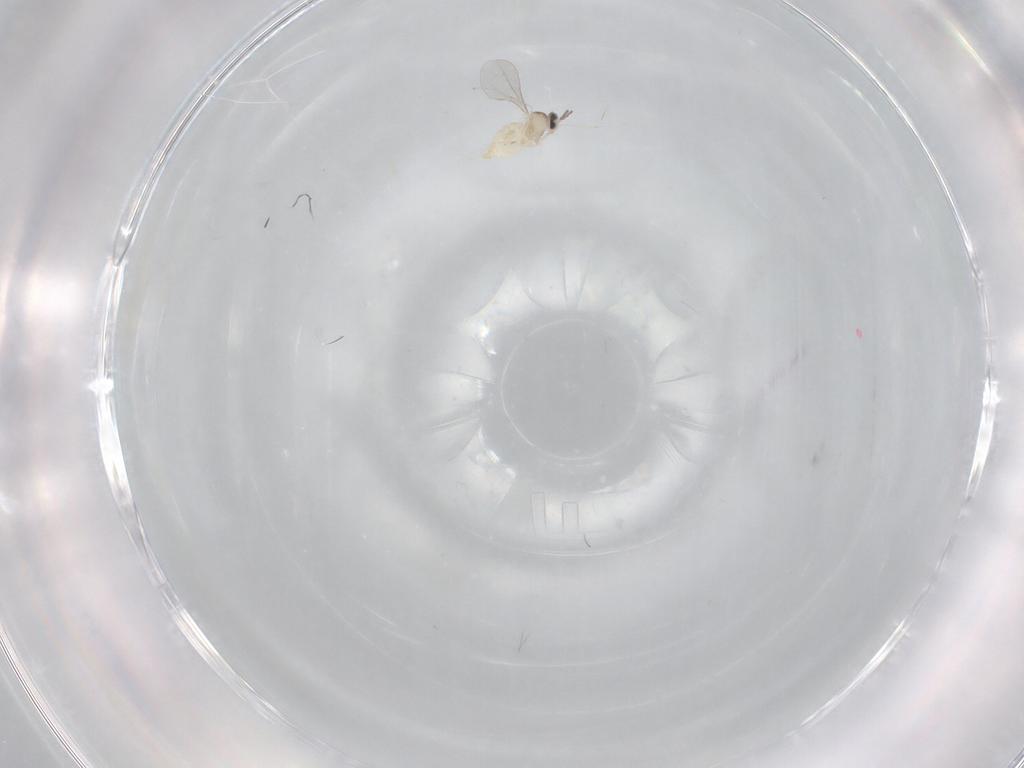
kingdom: Animalia
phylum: Arthropoda
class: Insecta
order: Diptera
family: Cecidomyiidae
